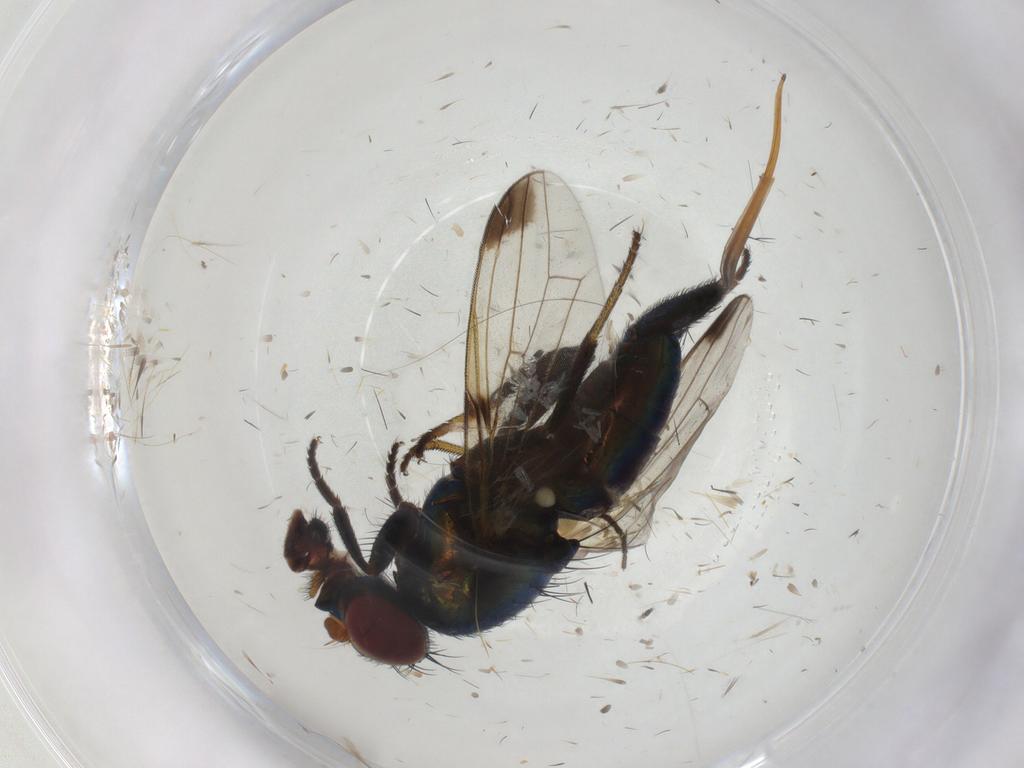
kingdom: Animalia
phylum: Arthropoda
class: Insecta
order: Diptera
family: Ulidiidae
